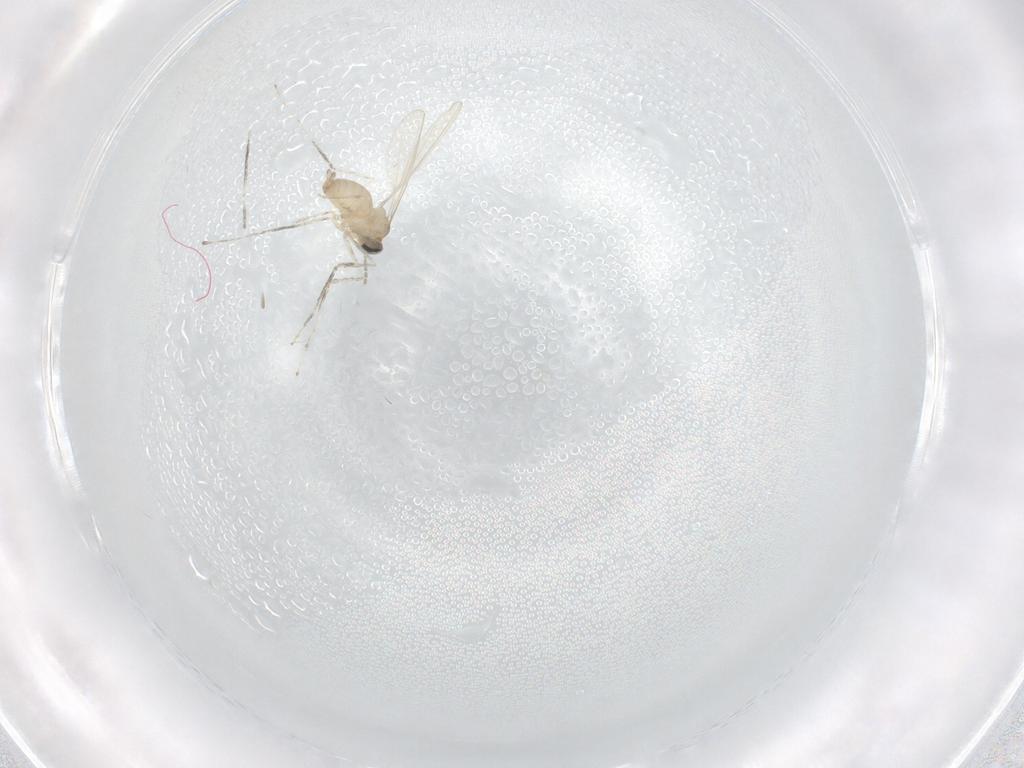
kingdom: Animalia
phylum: Arthropoda
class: Insecta
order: Diptera
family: Cecidomyiidae
